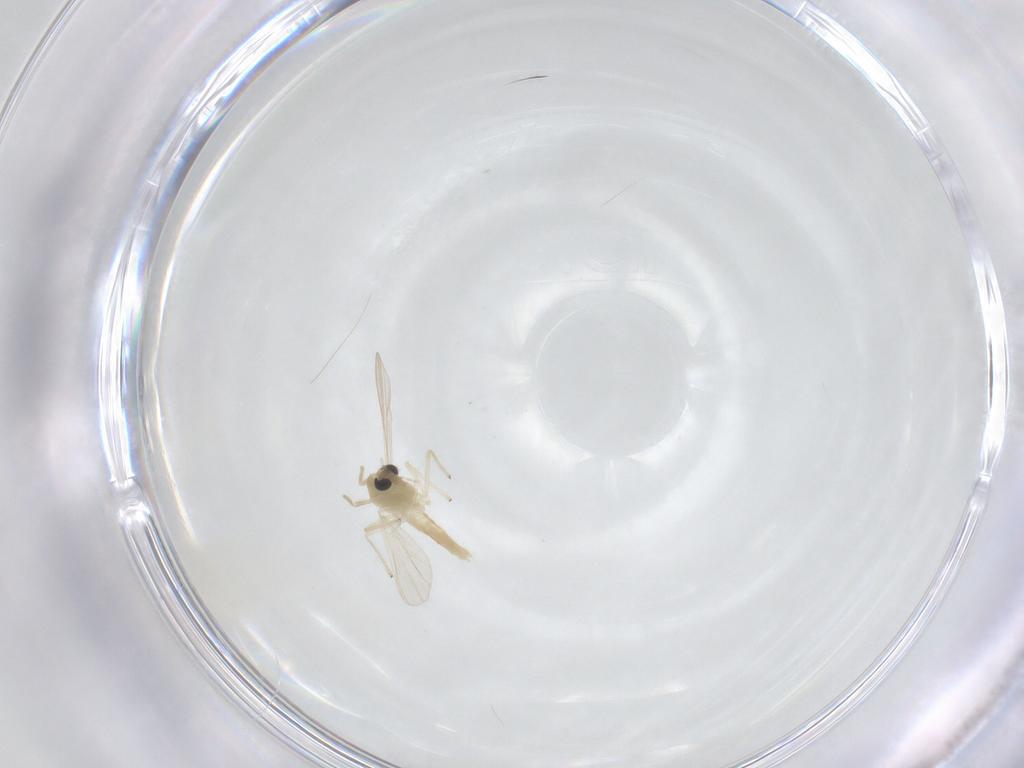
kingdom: Animalia
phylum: Arthropoda
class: Insecta
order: Diptera
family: Chironomidae
